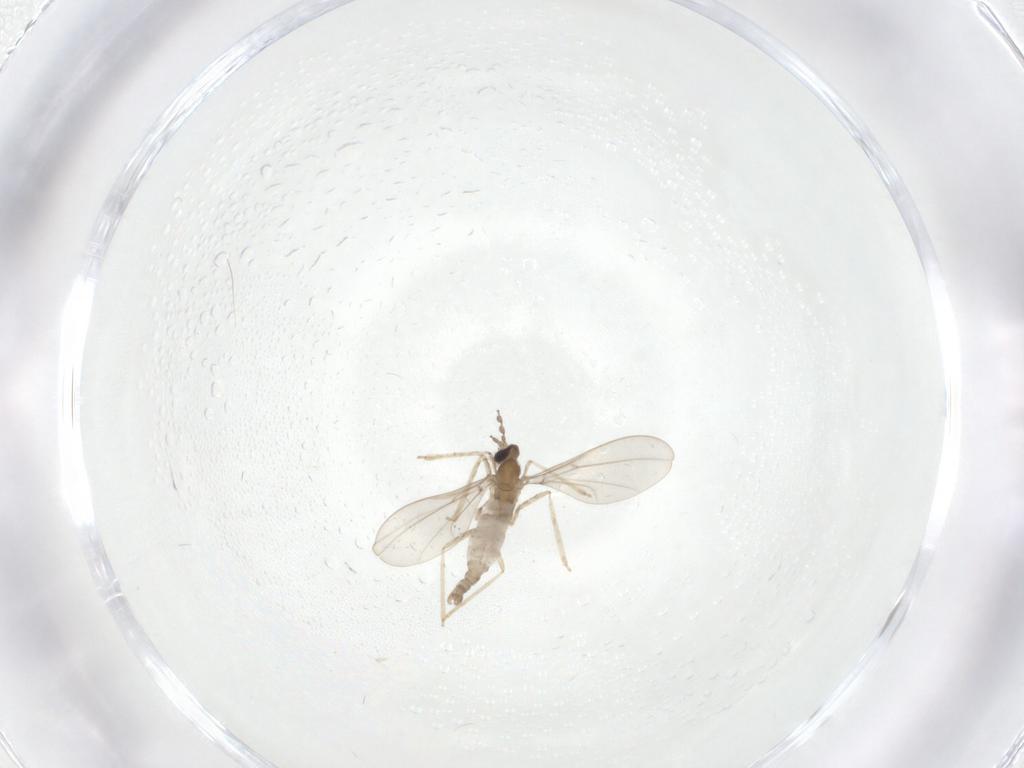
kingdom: Animalia
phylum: Arthropoda
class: Insecta
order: Diptera
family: Cecidomyiidae
